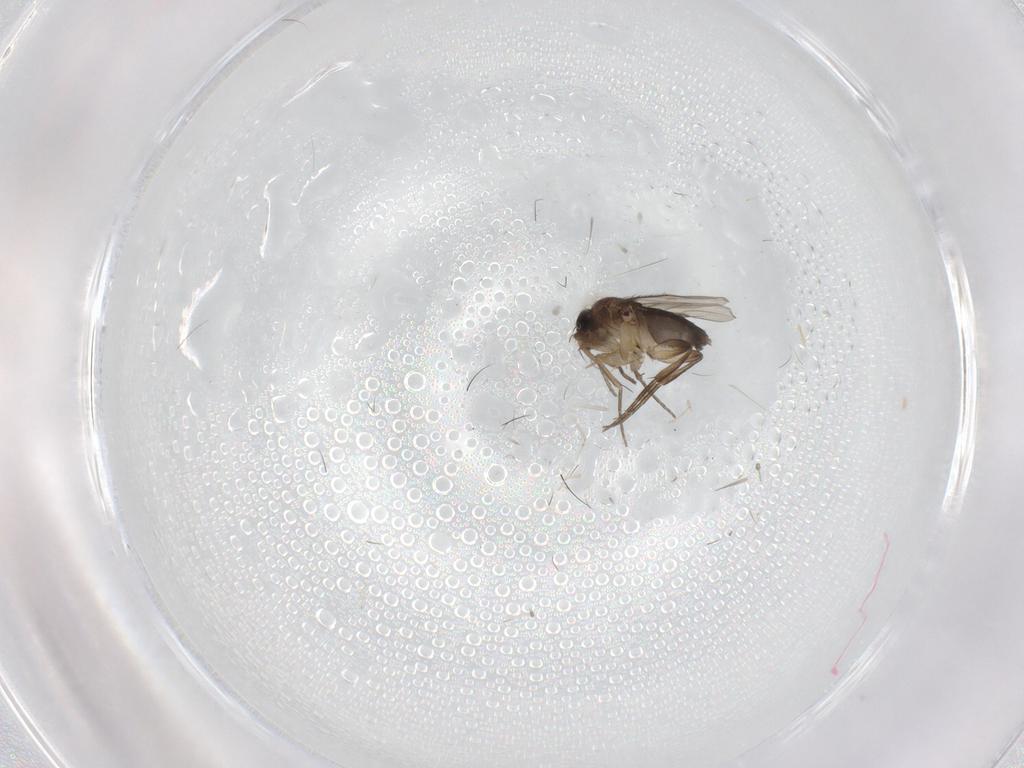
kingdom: Animalia
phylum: Arthropoda
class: Insecta
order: Diptera
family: Phoridae
